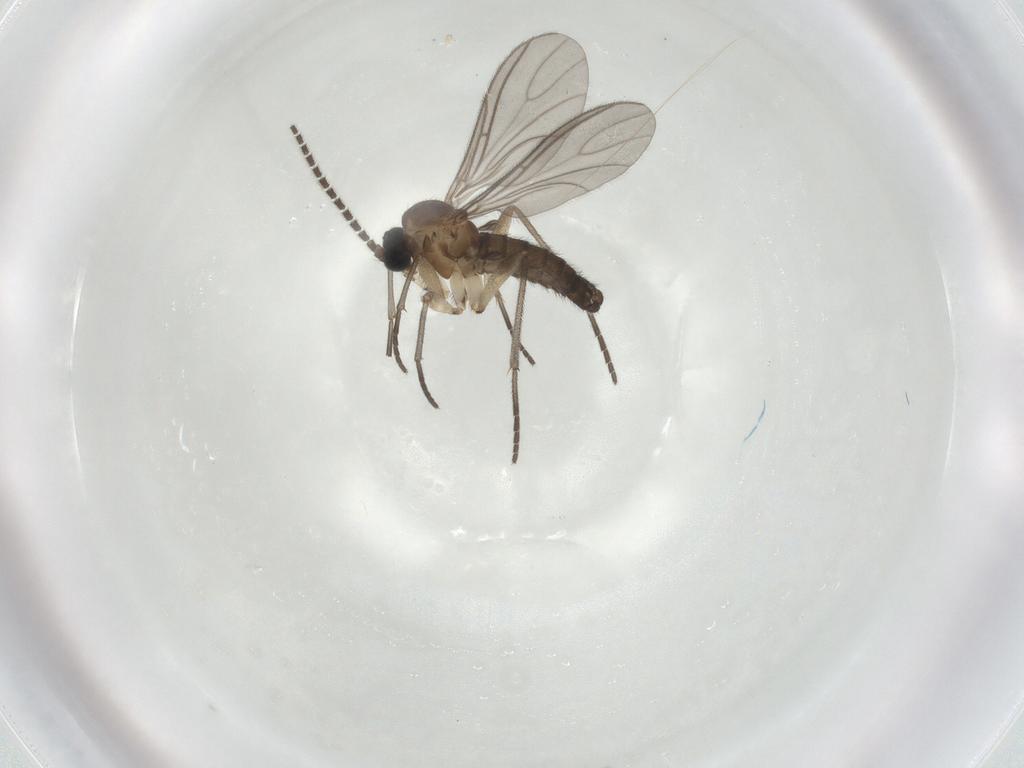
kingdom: Animalia
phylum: Arthropoda
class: Insecta
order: Diptera
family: Sciaridae
